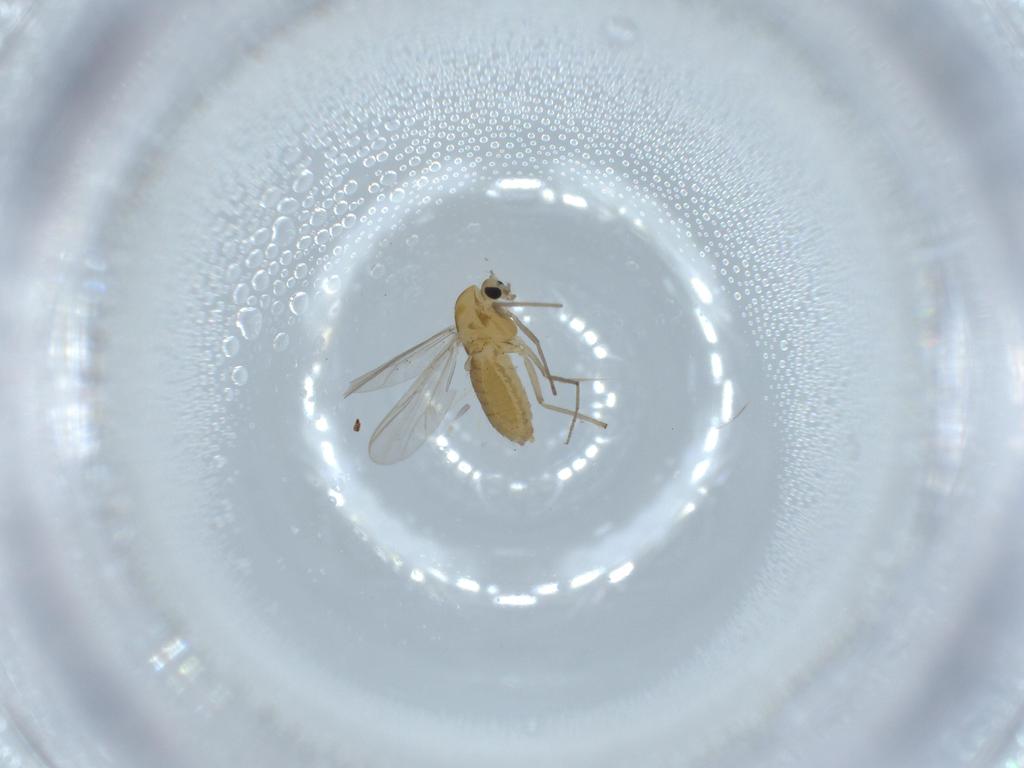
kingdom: Animalia
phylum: Arthropoda
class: Insecta
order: Diptera
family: Chironomidae
